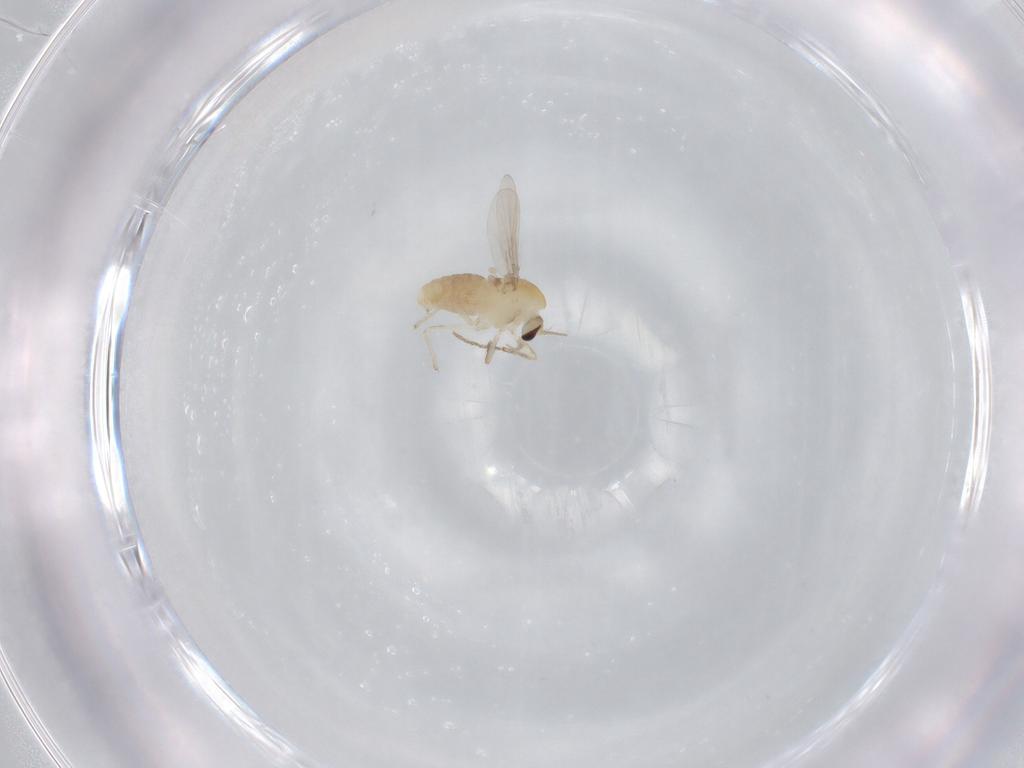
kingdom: Animalia
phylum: Arthropoda
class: Insecta
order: Diptera
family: Chironomidae
